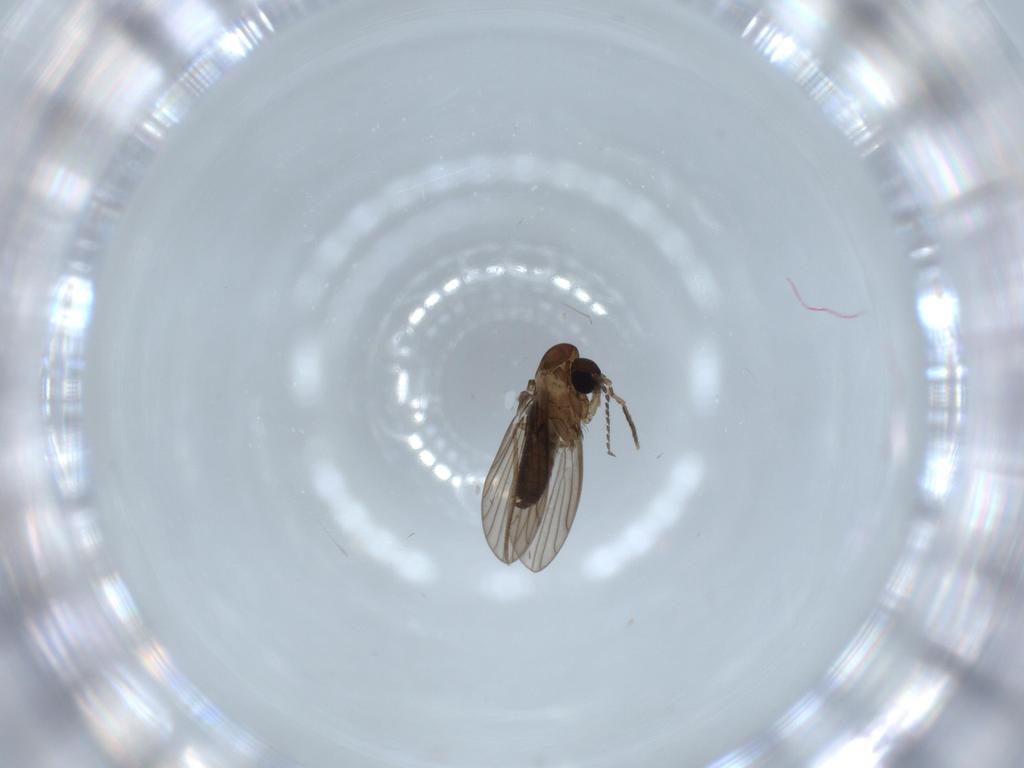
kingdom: Animalia
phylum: Arthropoda
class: Insecta
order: Diptera
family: Psychodidae
